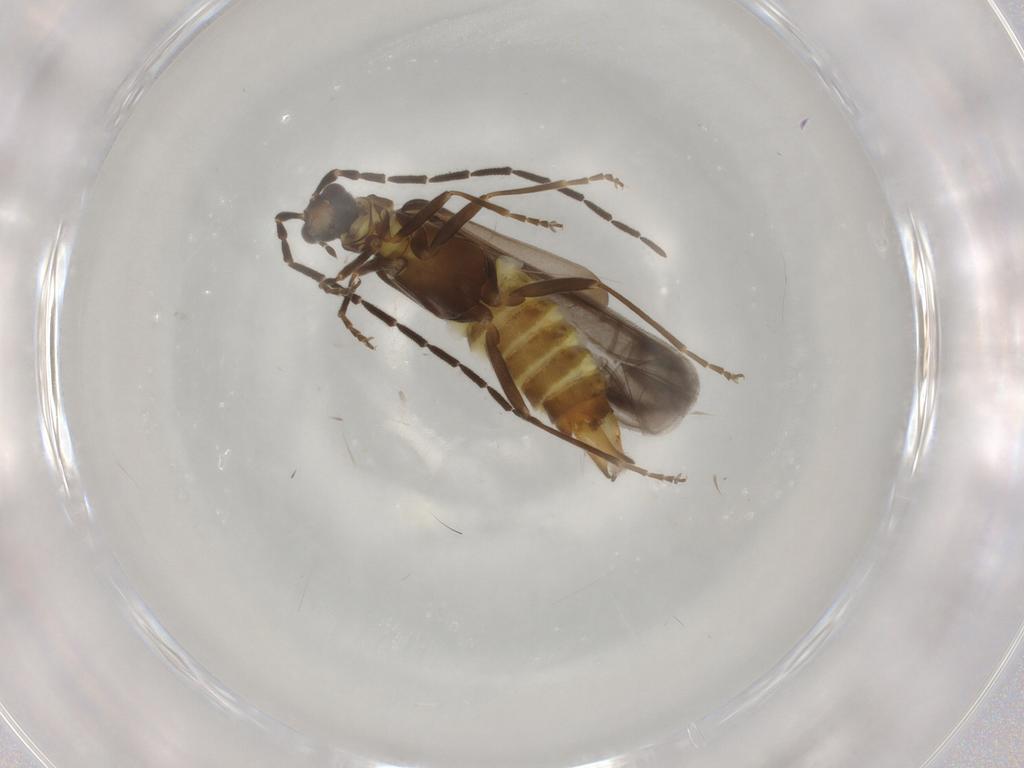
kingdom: Animalia
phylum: Arthropoda
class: Insecta
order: Coleoptera
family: Cantharidae
